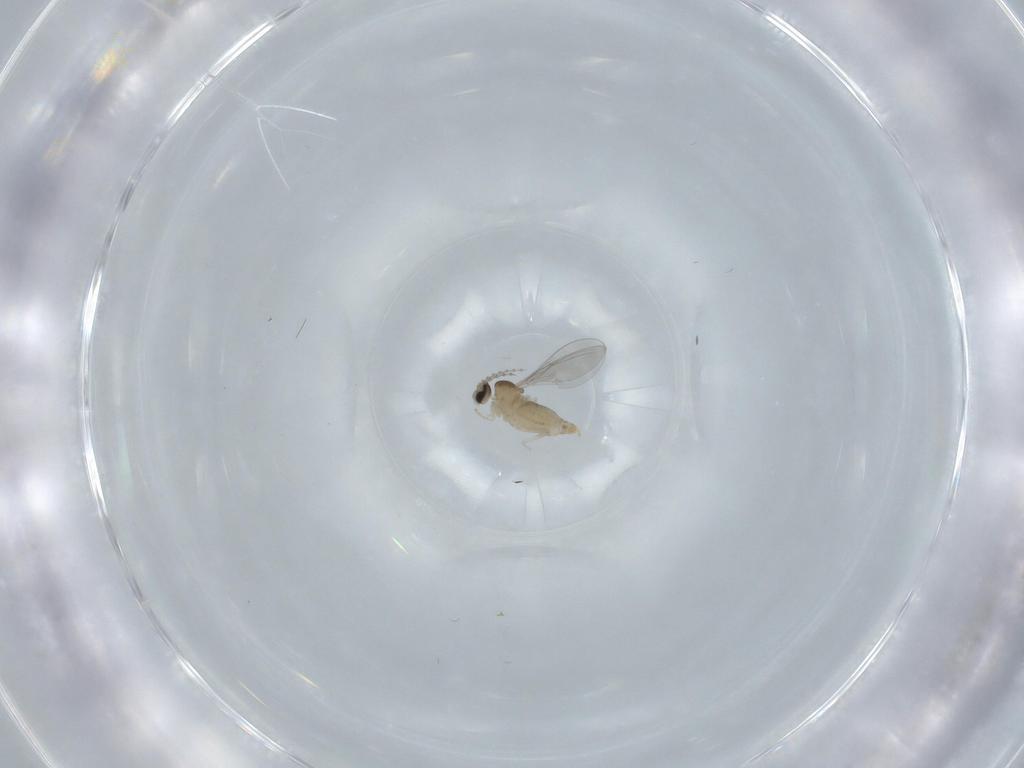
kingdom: Animalia
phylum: Arthropoda
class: Insecta
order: Diptera
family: Cecidomyiidae
